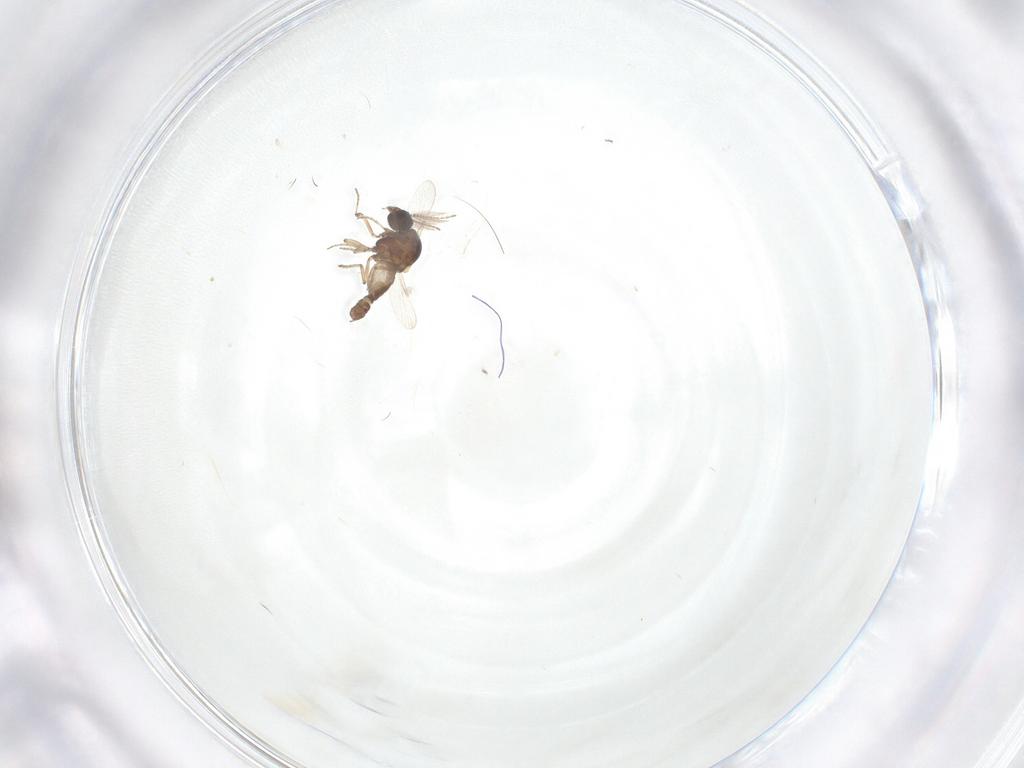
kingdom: Animalia
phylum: Arthropoda
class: Insecta
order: Diptera
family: Ceratopogonidae
